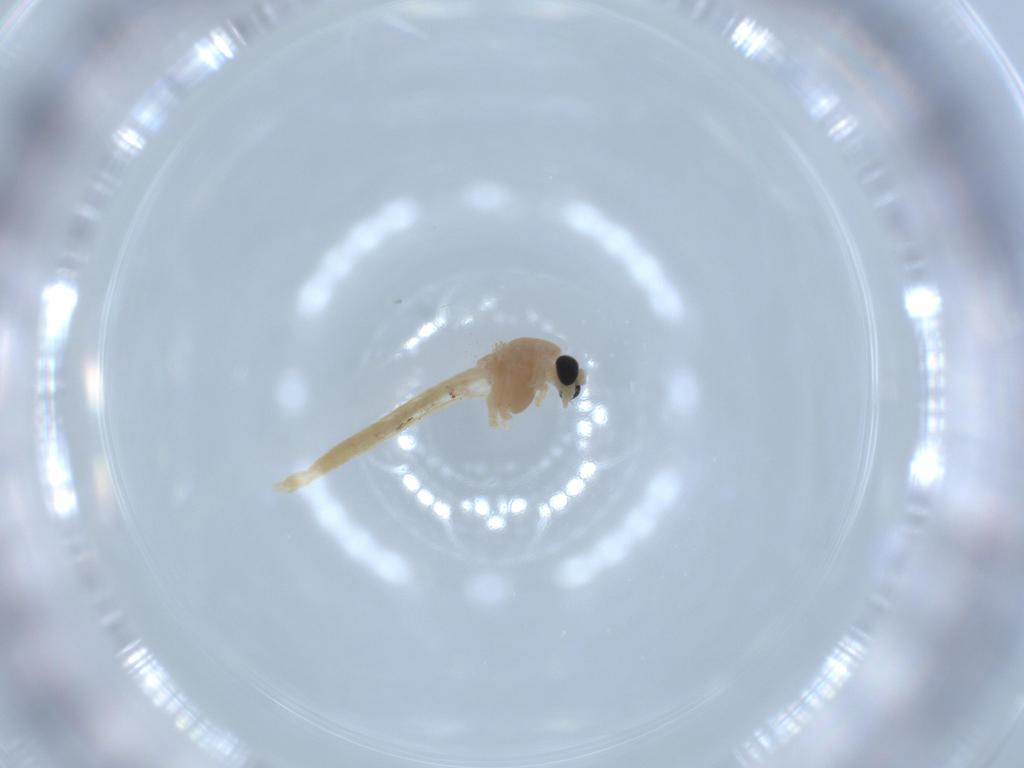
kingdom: Animalia
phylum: Arthropoda
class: Insecta
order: Diptera
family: Sciaridae
